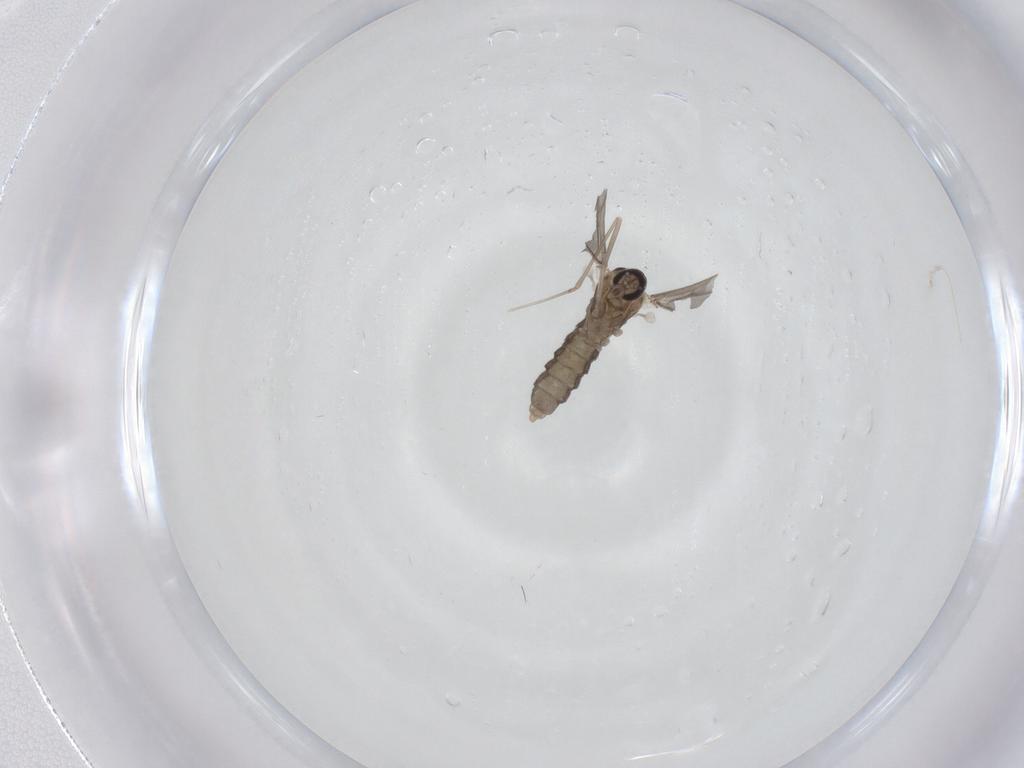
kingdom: Animalia
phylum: Arthropoda
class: Insecta
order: Diptera
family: Cecidomyiidae
